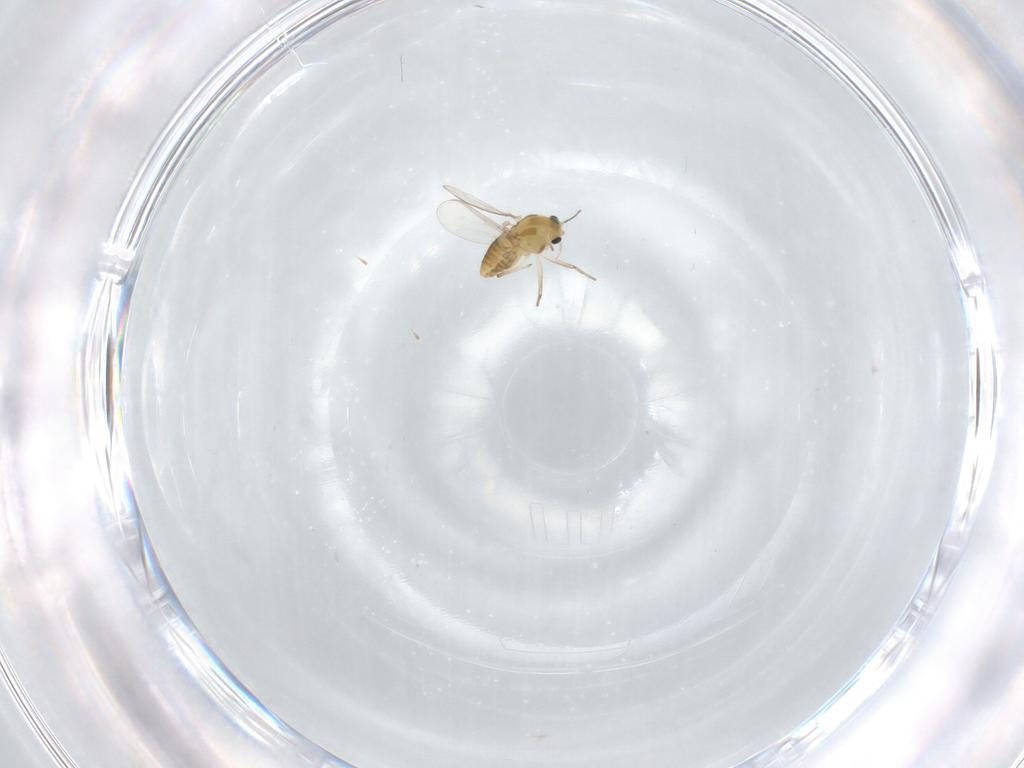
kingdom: Animalia
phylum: Arthropoda
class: Insecta
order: Diptera
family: Chironomidae
